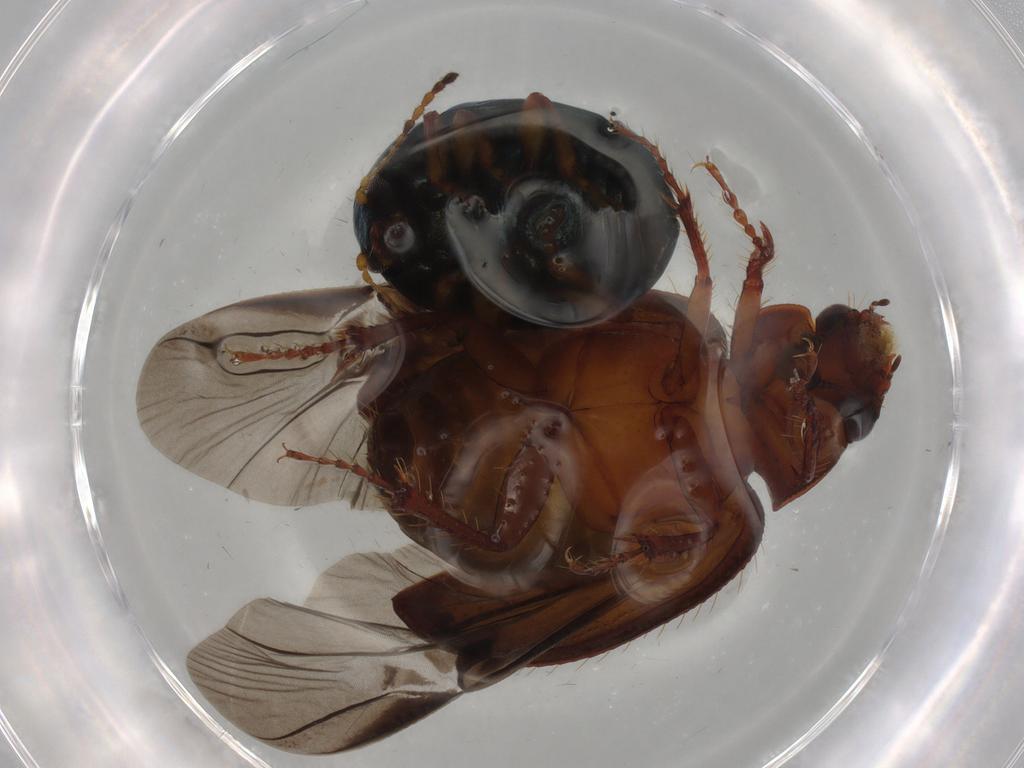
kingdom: Animalia
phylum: Arthropoda
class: Insecta
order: Coleoptera
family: Chrysomelidae
